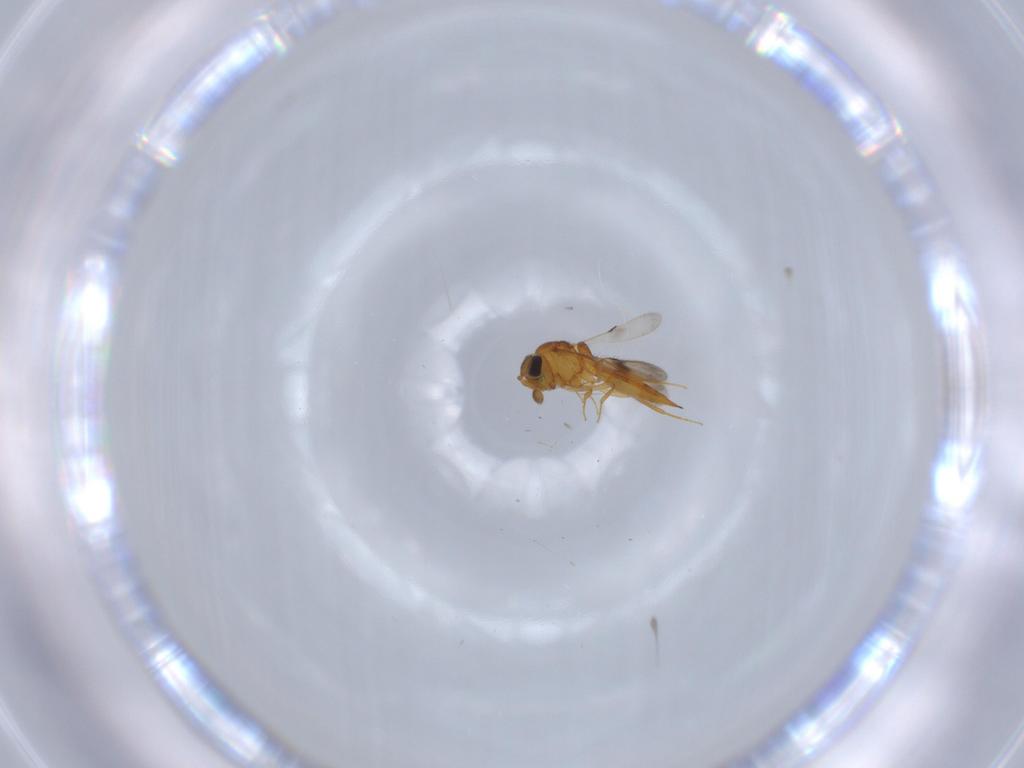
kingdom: Animalia
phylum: Arthropoda
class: Insecta
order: Hymenoptera
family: Scelionidae
